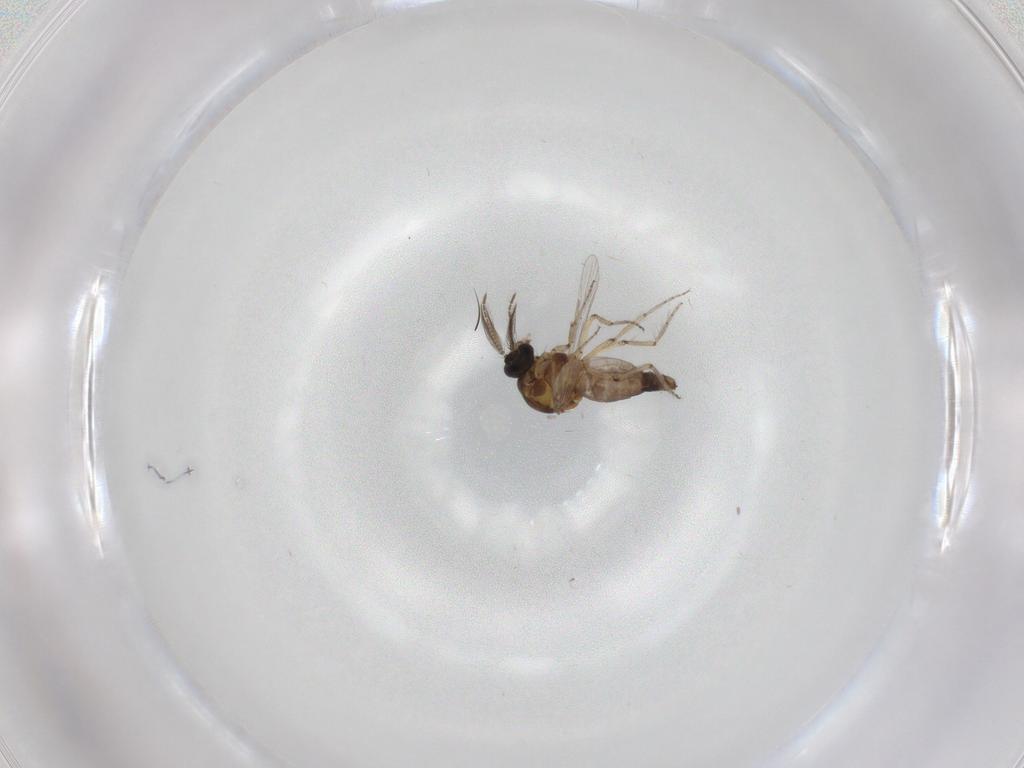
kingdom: Animalia
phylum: Arthropoda
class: Insecta
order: Diptera
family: Ceratopogonidae
